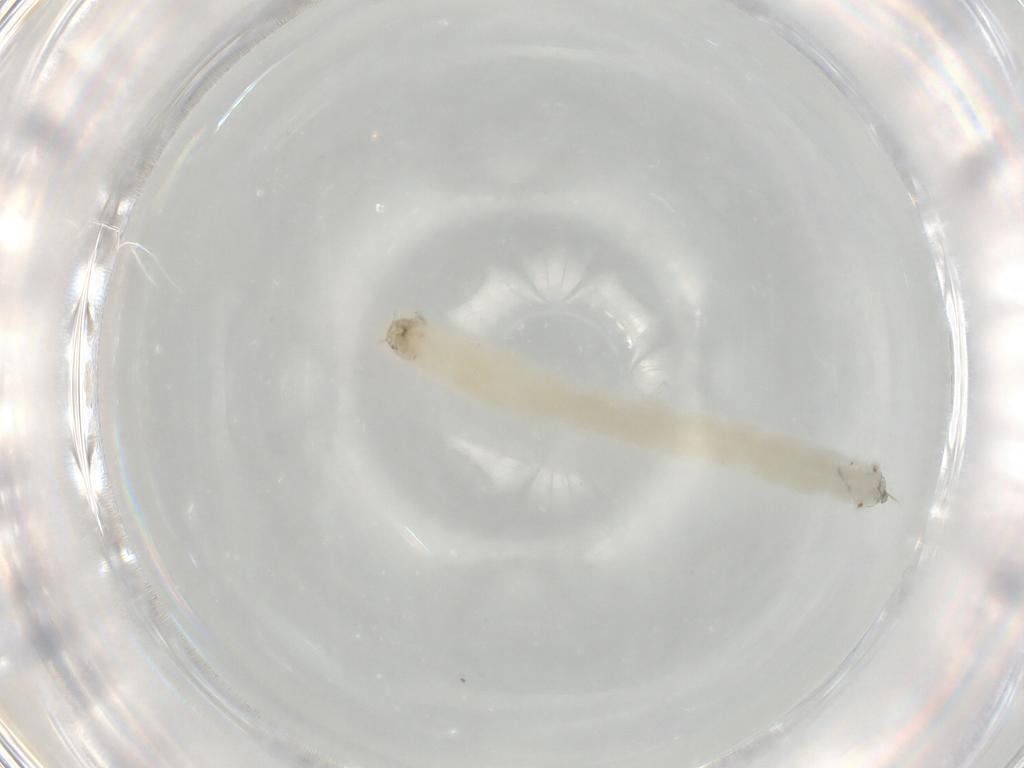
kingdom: Animalia
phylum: Arthropoda
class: Insecta
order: Diptera
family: Chironomidae
